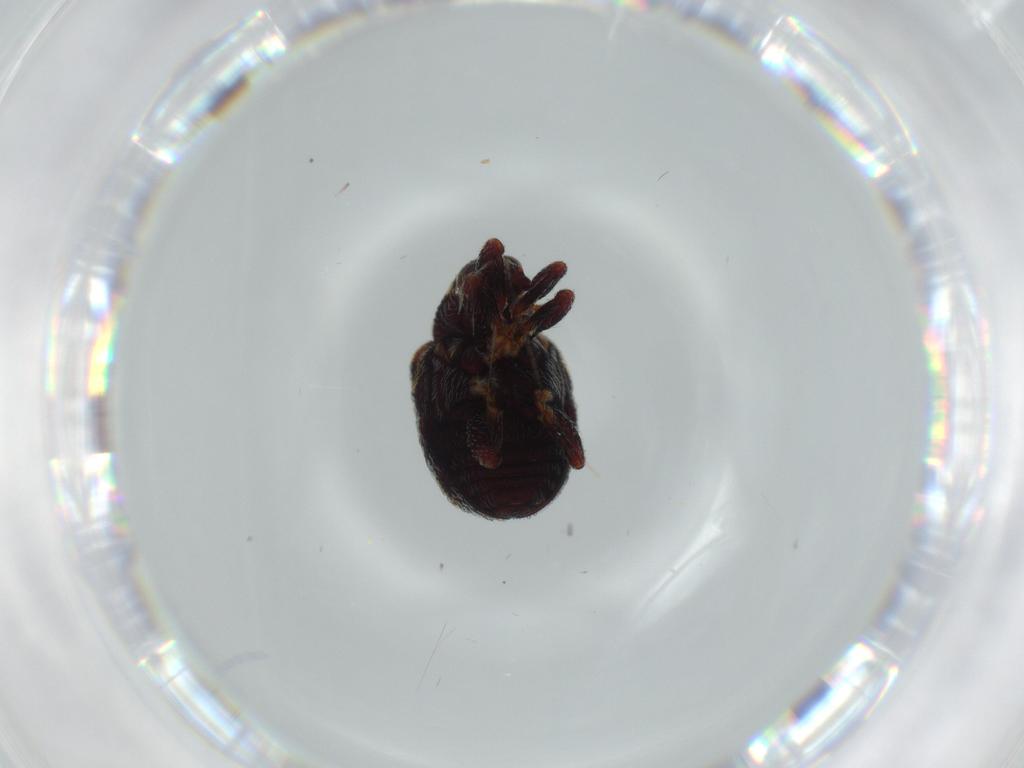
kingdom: Animalia
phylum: Arthropoda
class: Insecta
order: Coleoptera
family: Curculionidae
